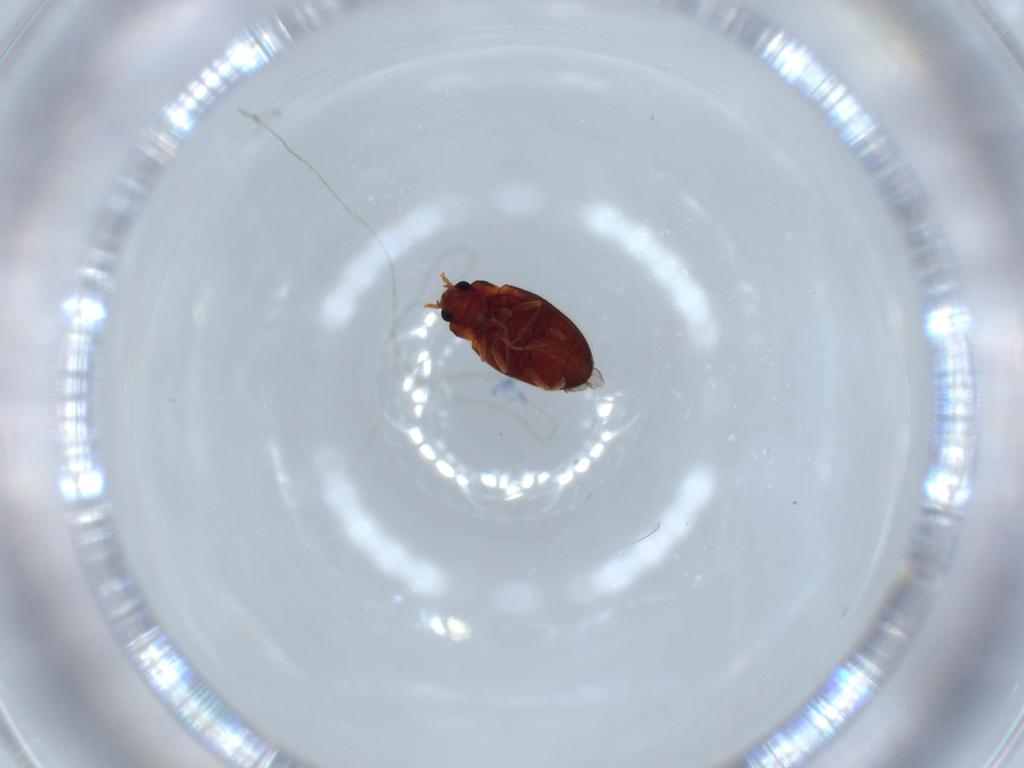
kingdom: Animalia
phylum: Arthropoda
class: Insecta
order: Coleoptera
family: Erotylidae
